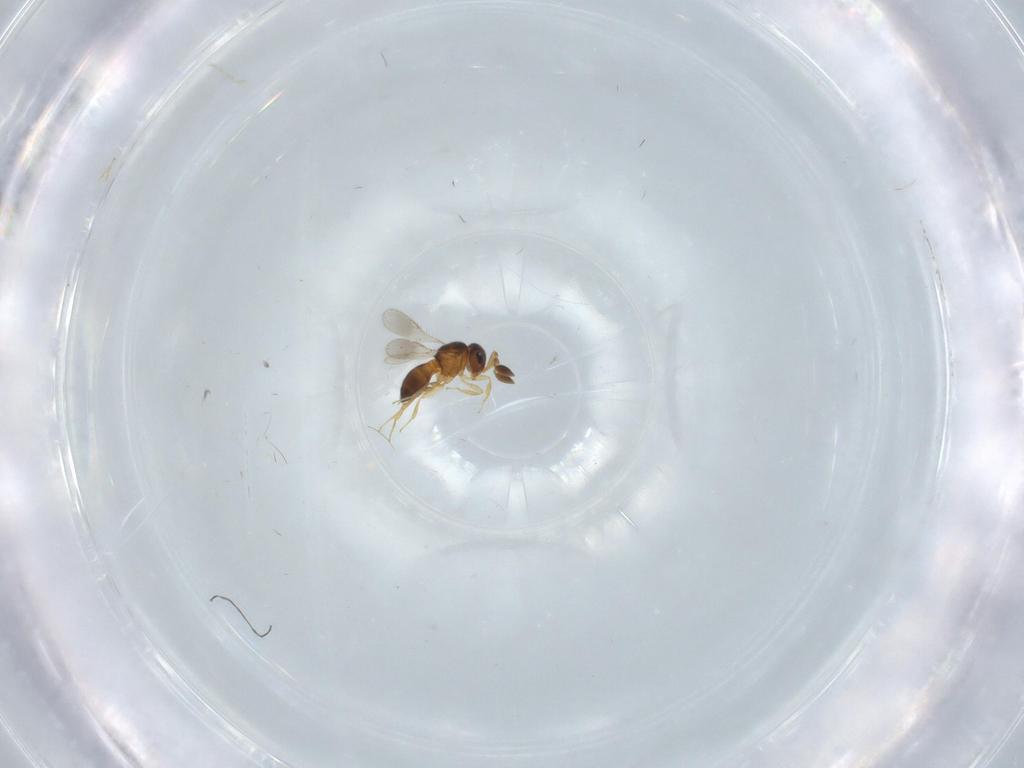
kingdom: Animalia
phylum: Arthropoda
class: Insecta
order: Hymenoptera
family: Scelionidae
